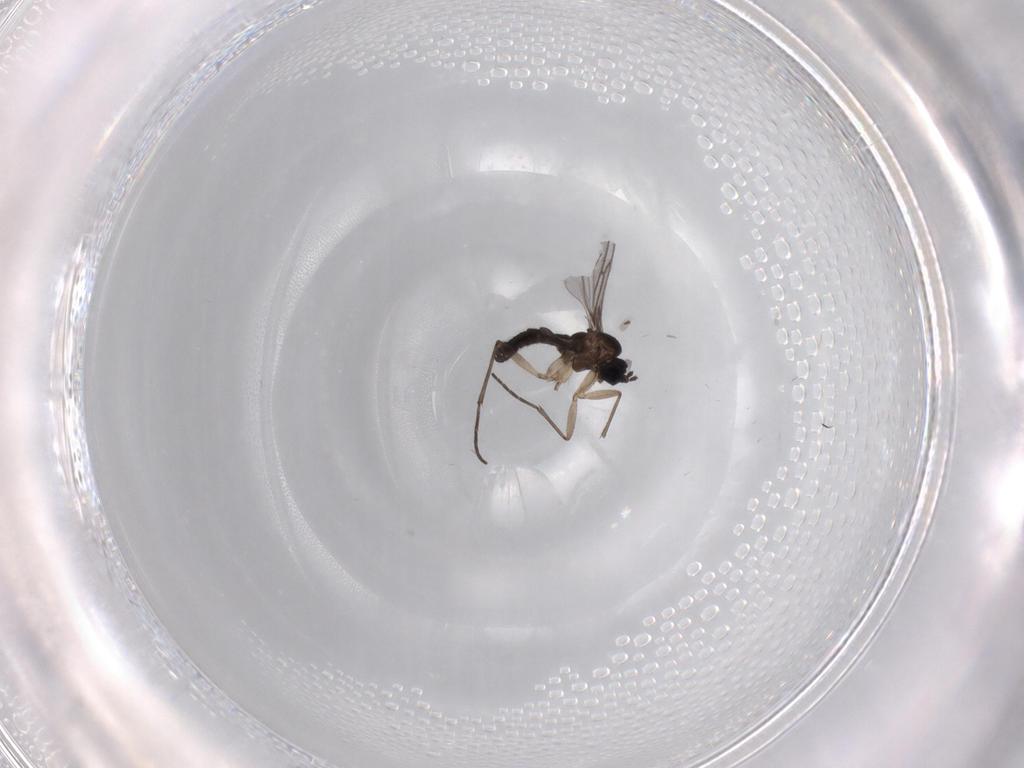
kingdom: Animalia
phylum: Arthropoda
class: Insecta
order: Diptera
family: Sciaridae
